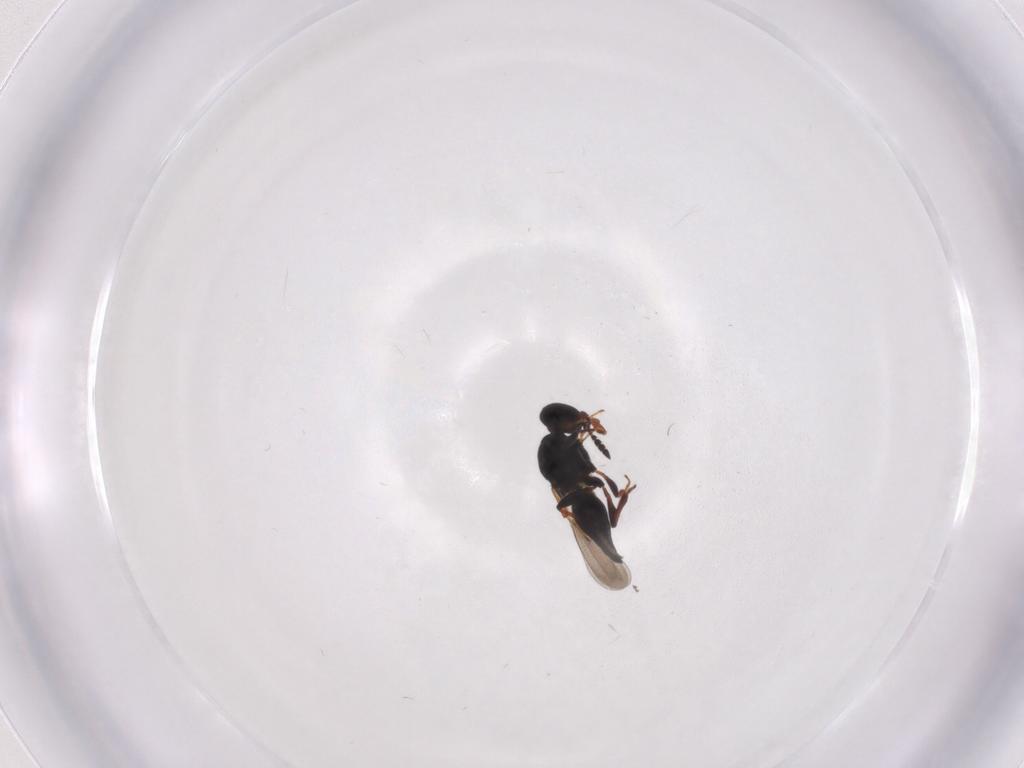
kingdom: Animalia
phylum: Arthropoda
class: Insecta
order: Hymenoptera
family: Platygastridae
